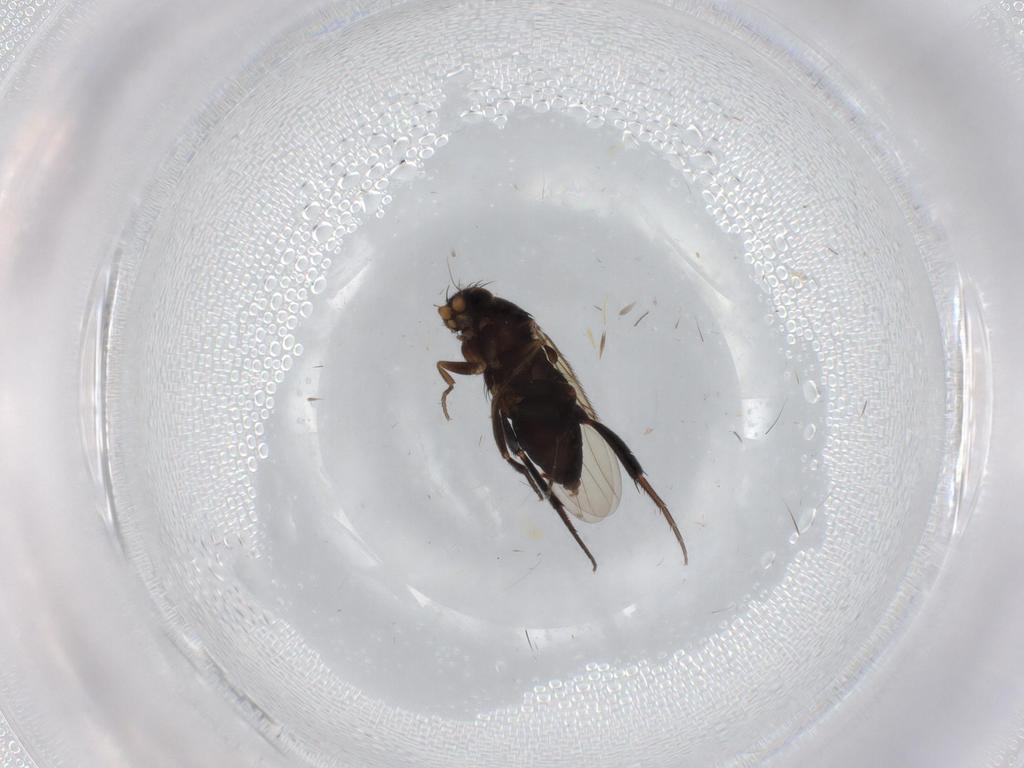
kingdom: Animalia
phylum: Arthropoda
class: Insecta
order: Diptera
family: Phoridae
